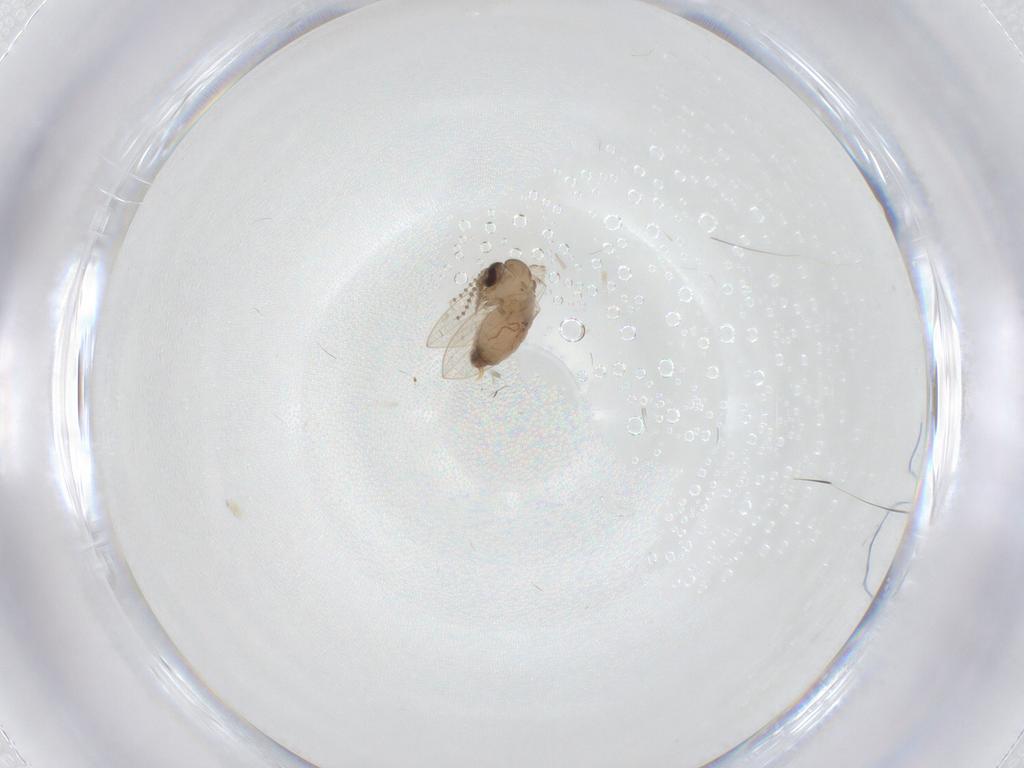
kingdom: Animalia
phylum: Arthropoda
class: Insecta
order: Diptera
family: Psychodidae
